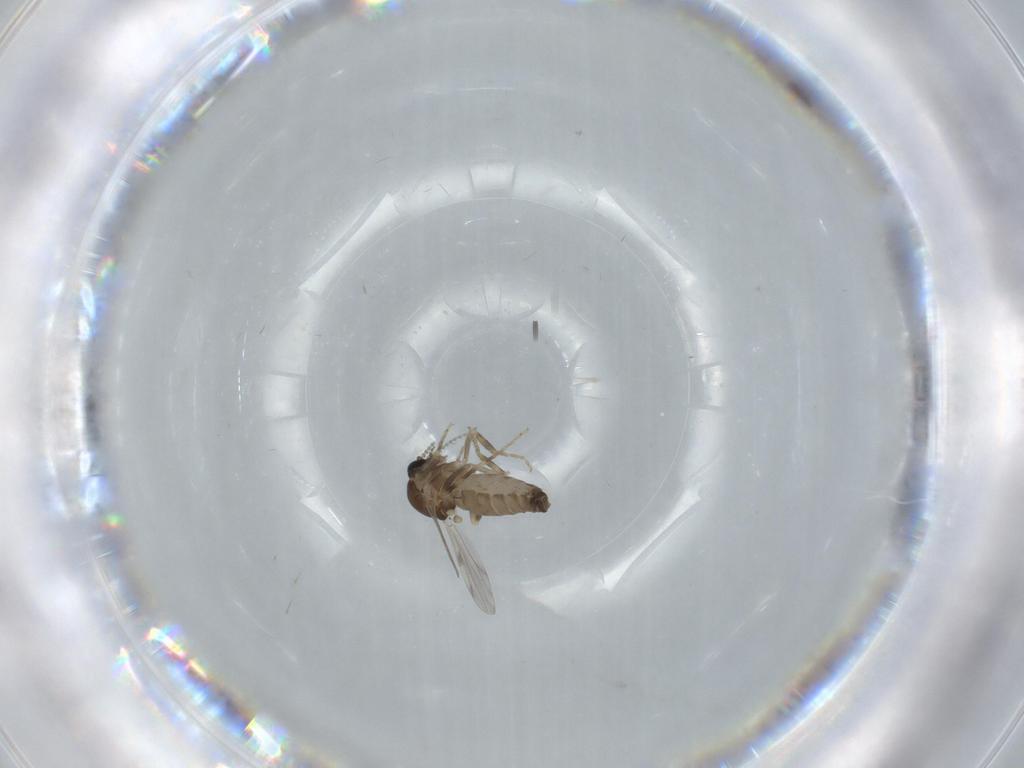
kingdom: Animalia
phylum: Arthropoda
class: Insecta
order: Diptera
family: Ceratopogonidae
